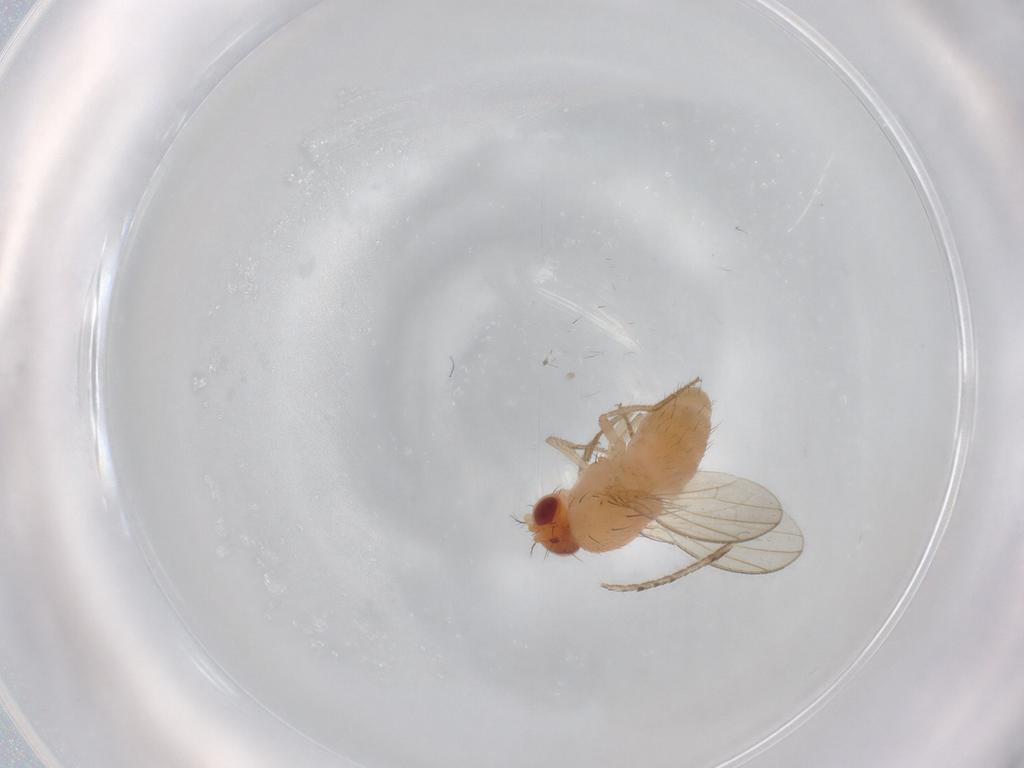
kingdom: Animalia
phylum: Arthropoda
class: Insecta
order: Diptera
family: Drosophilidae
